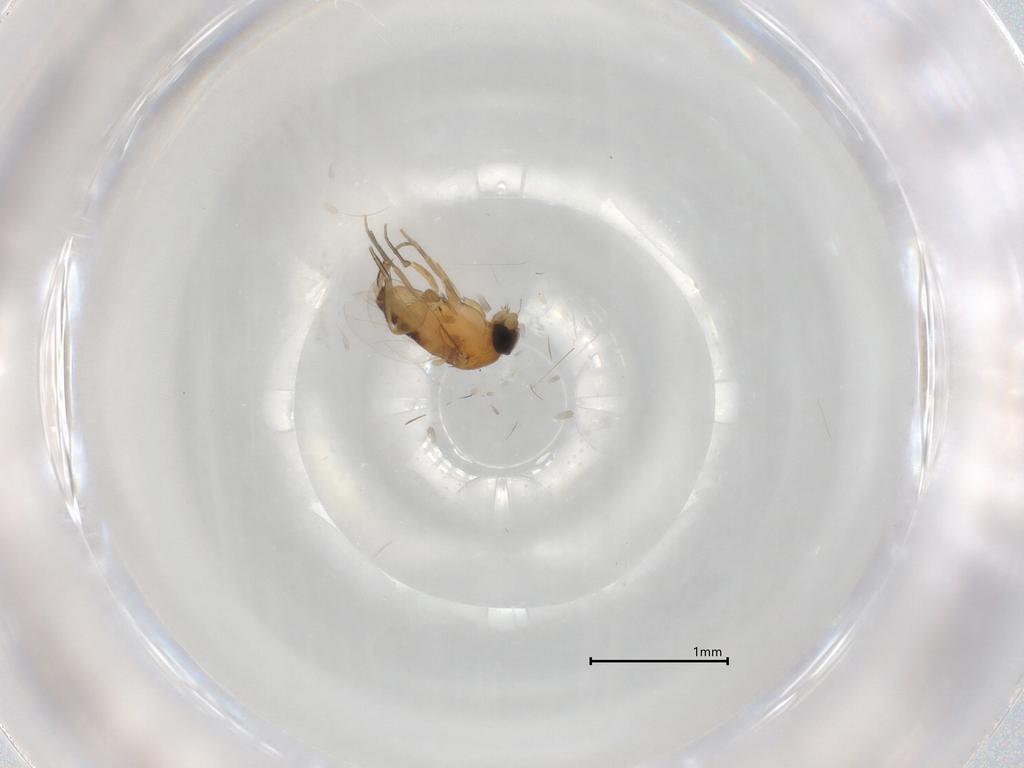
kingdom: Animalia
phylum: Arthropoda
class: Insecta
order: Diptera
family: Phoridae
